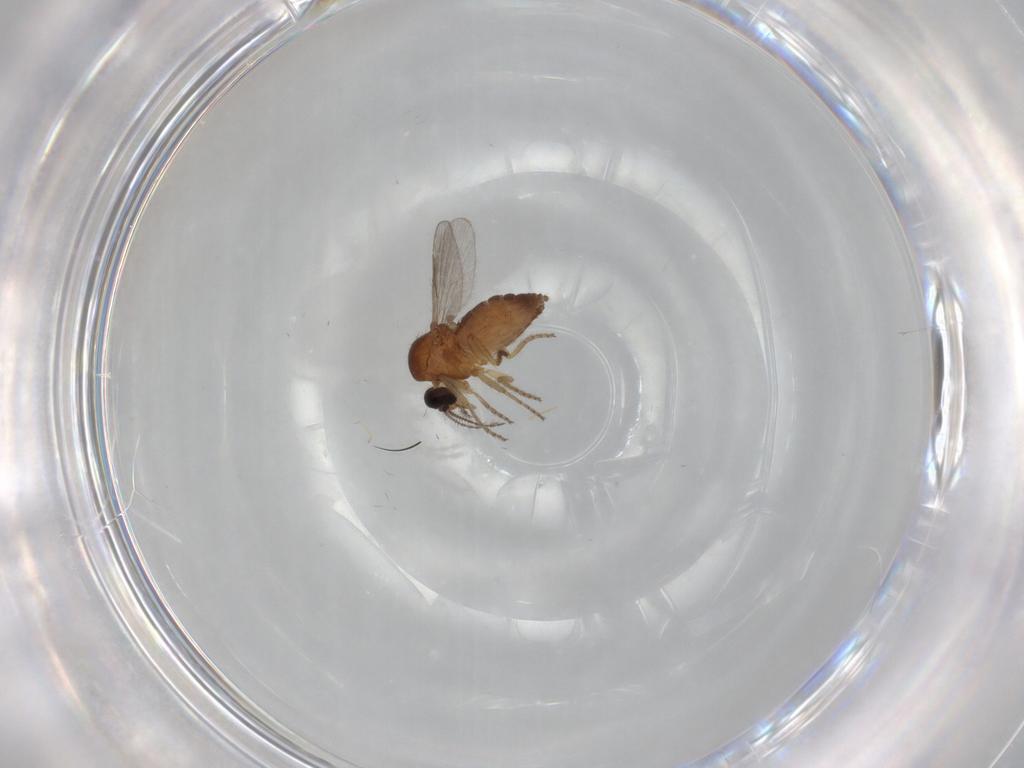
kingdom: Animalia
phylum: Arthropoda
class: Insecta
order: Diptera
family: Ceratopogonidae
